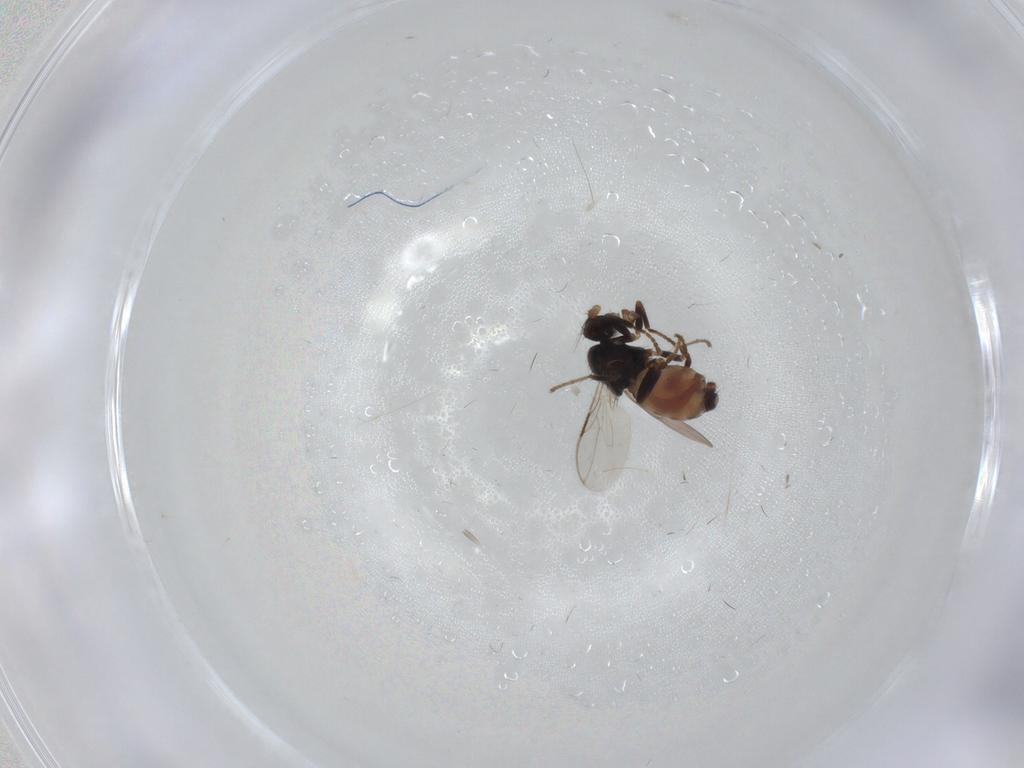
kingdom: Animalia
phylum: Arthropoda
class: Insecta
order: Diptera
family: Sphaeroceridae
